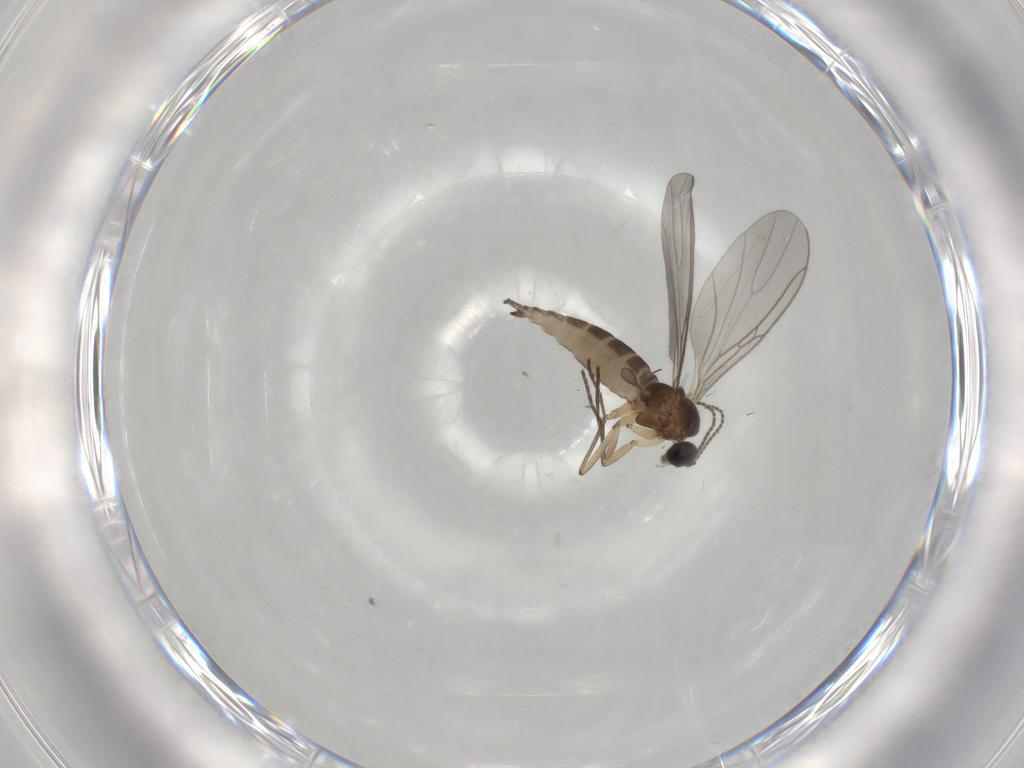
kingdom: Animalia
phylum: Arthropoda
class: Insecta
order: Diptera
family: Sciaridae
